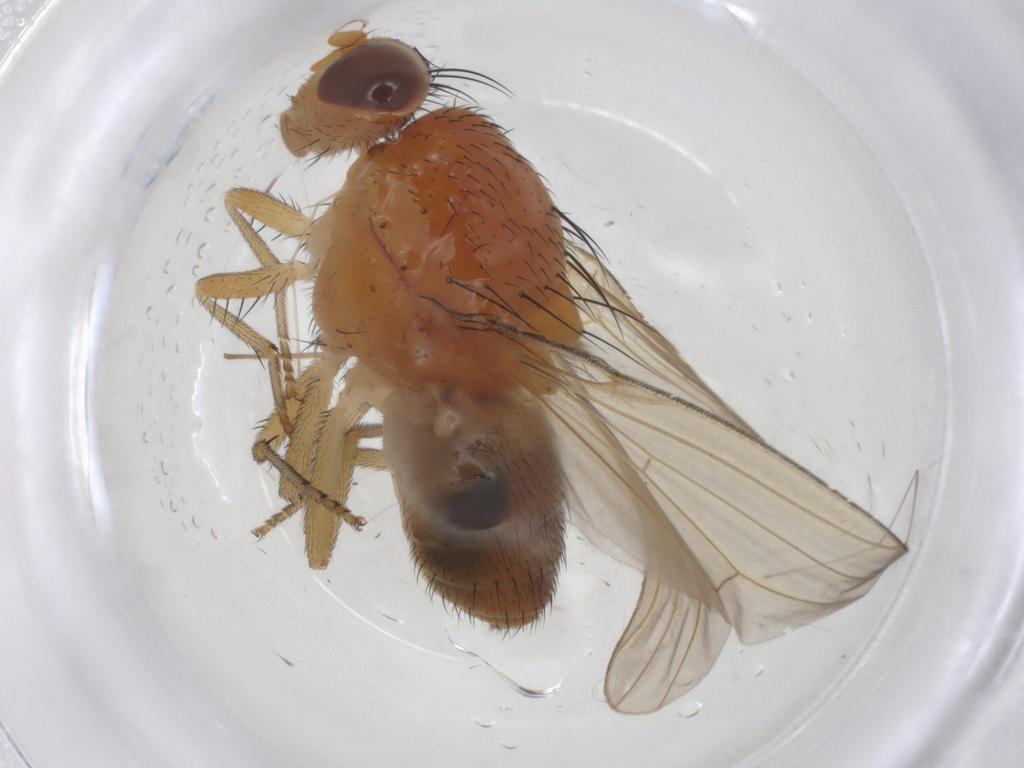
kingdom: Animalia
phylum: Arthropoda
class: Insecta
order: Diptera
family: Cecidomyiidae
